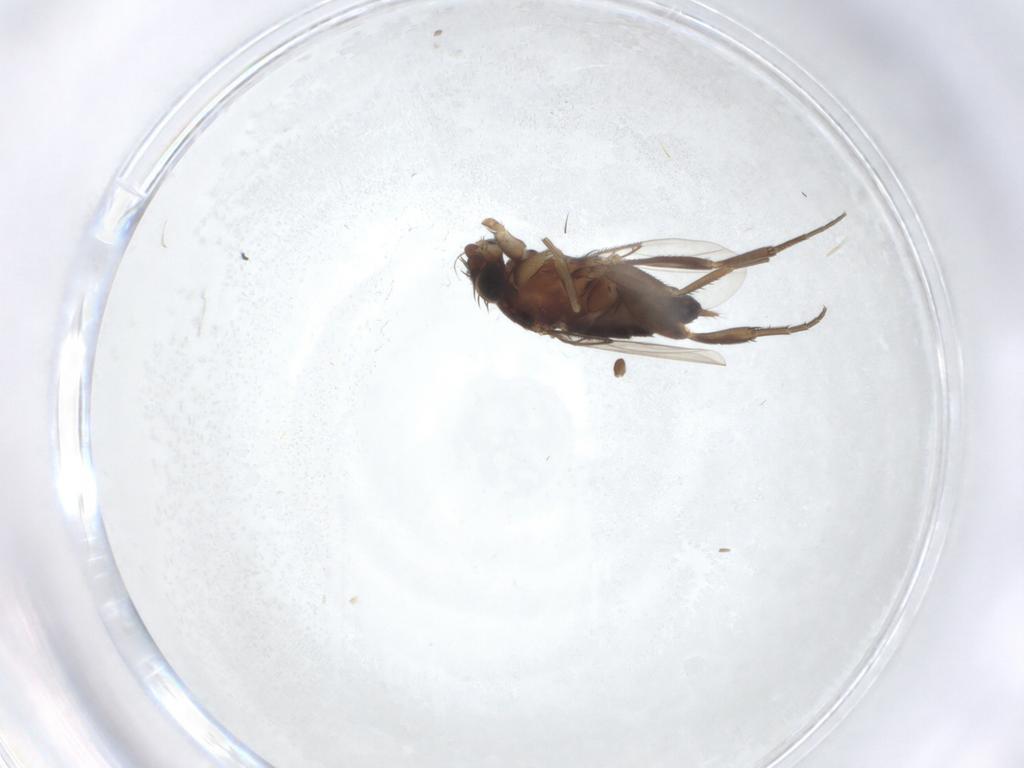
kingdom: Animalia
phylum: Arthropoda
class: Insecta
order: Diptera
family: Phoridae
